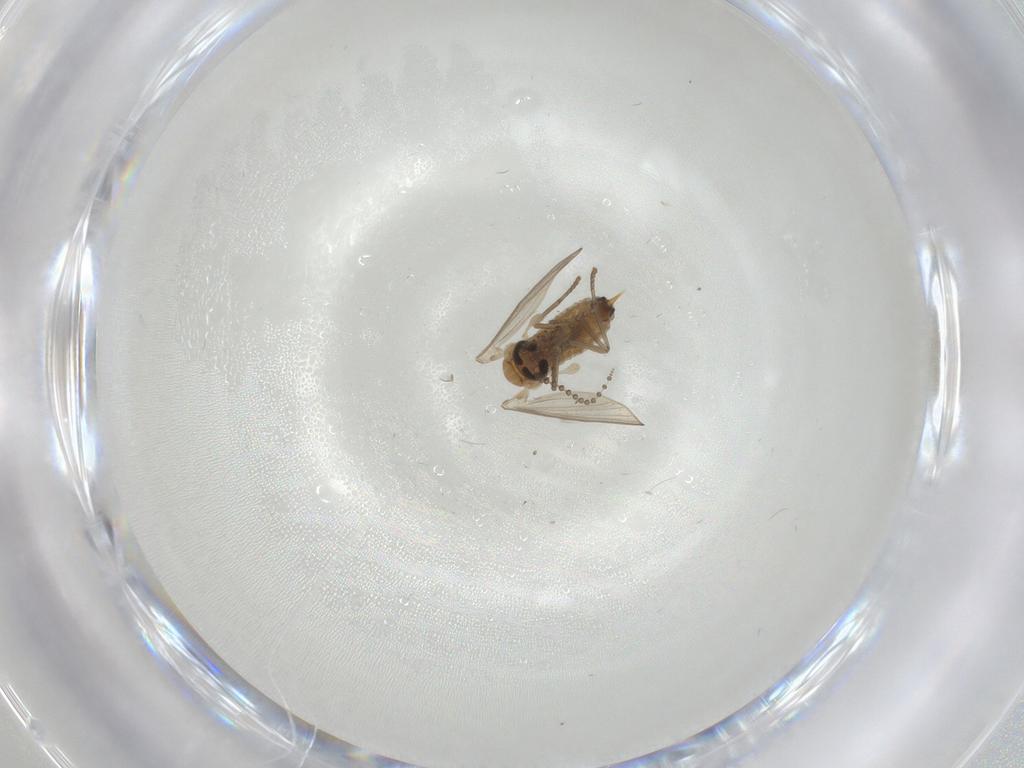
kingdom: Animalia
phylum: Arthropoda
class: Insecta
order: Diptera
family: Psychodidae
